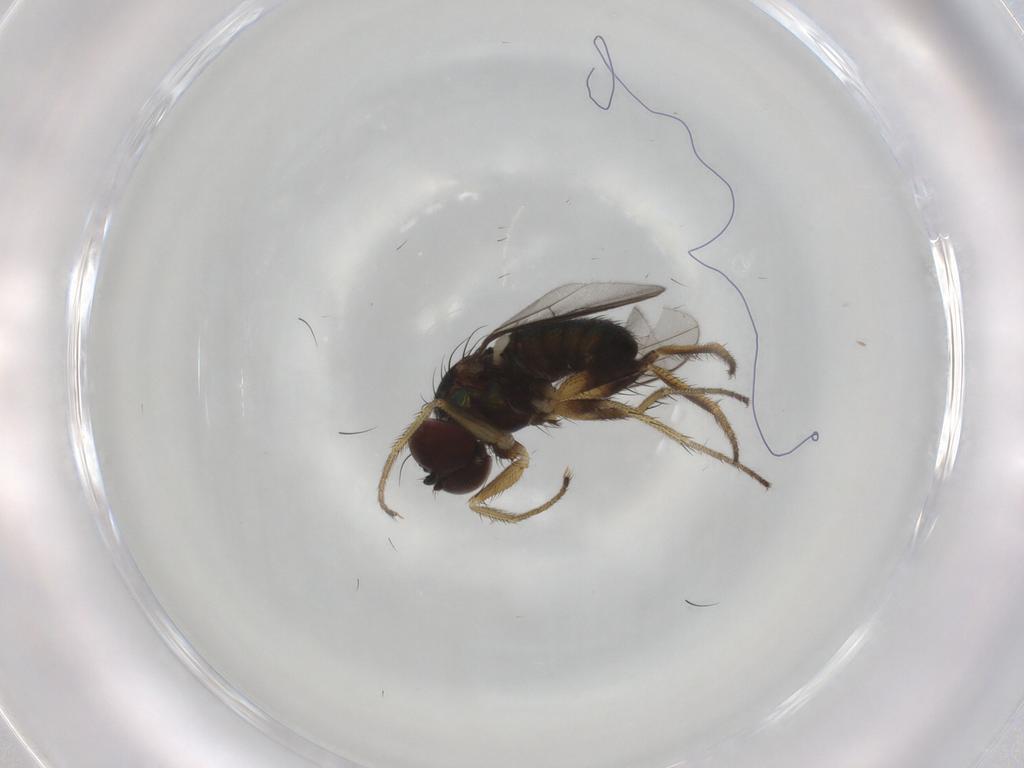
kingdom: Animalia
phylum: Arthropoda
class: Insecta
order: Diptera
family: Dolichopodidae
